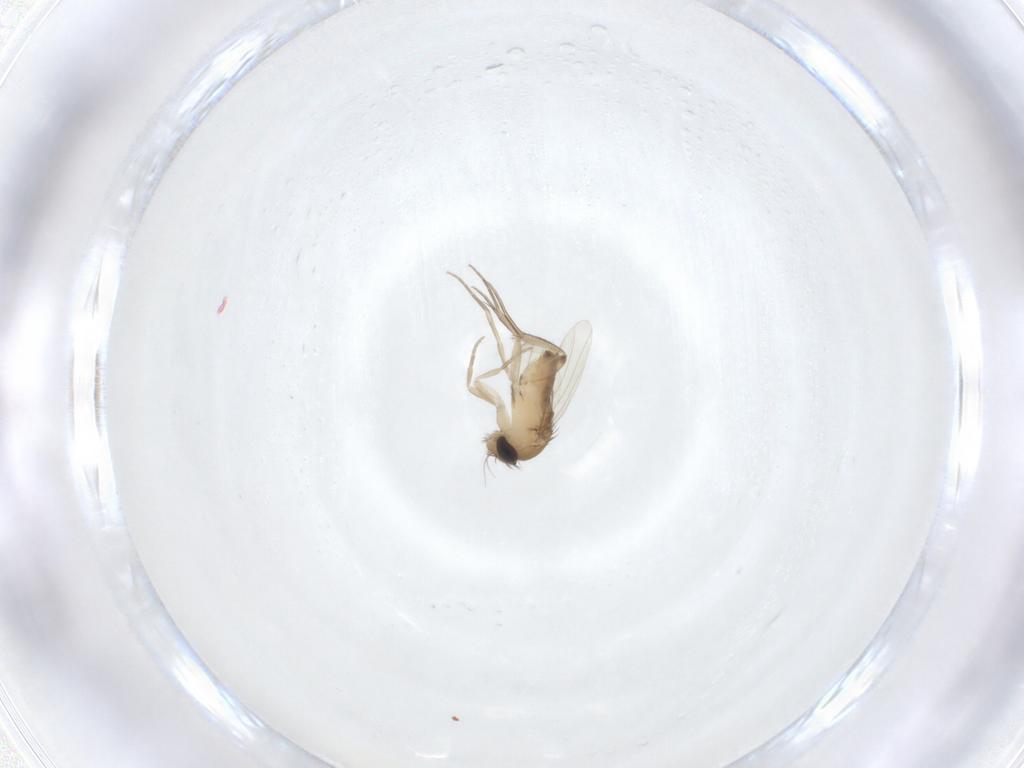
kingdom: Animalia
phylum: Arthropoda
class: Insecta
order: Diptera
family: Phoridae
